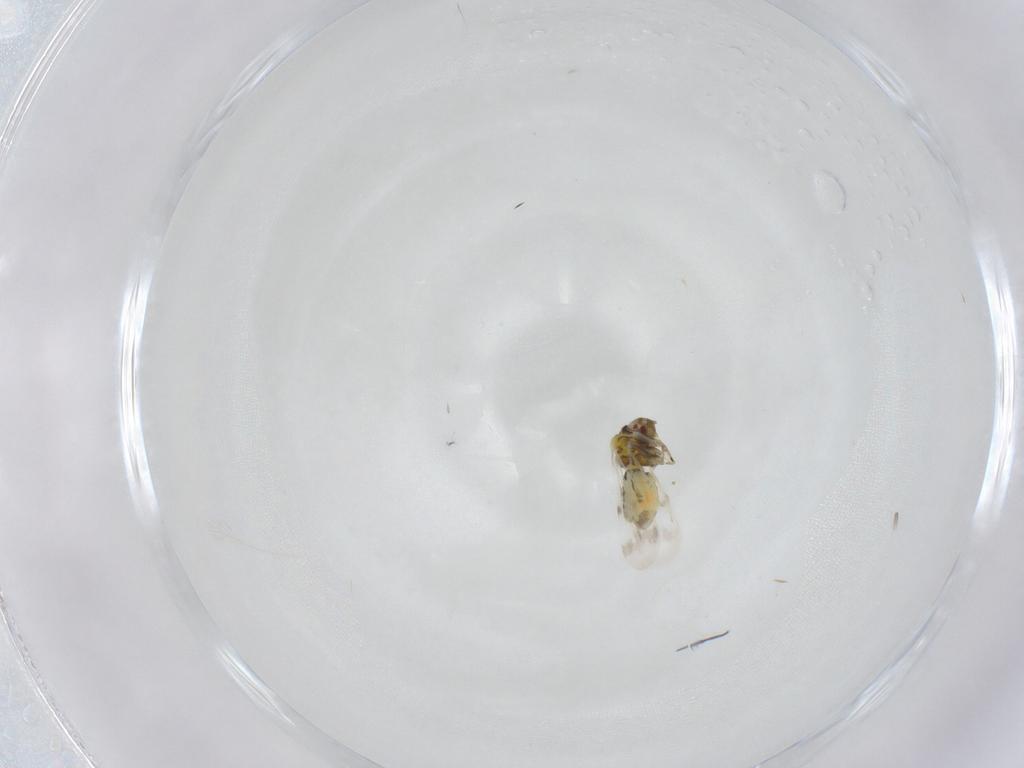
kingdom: Animalia
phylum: Arthropoda
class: Insecta
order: Hemiptera
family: Aleyrodidae
